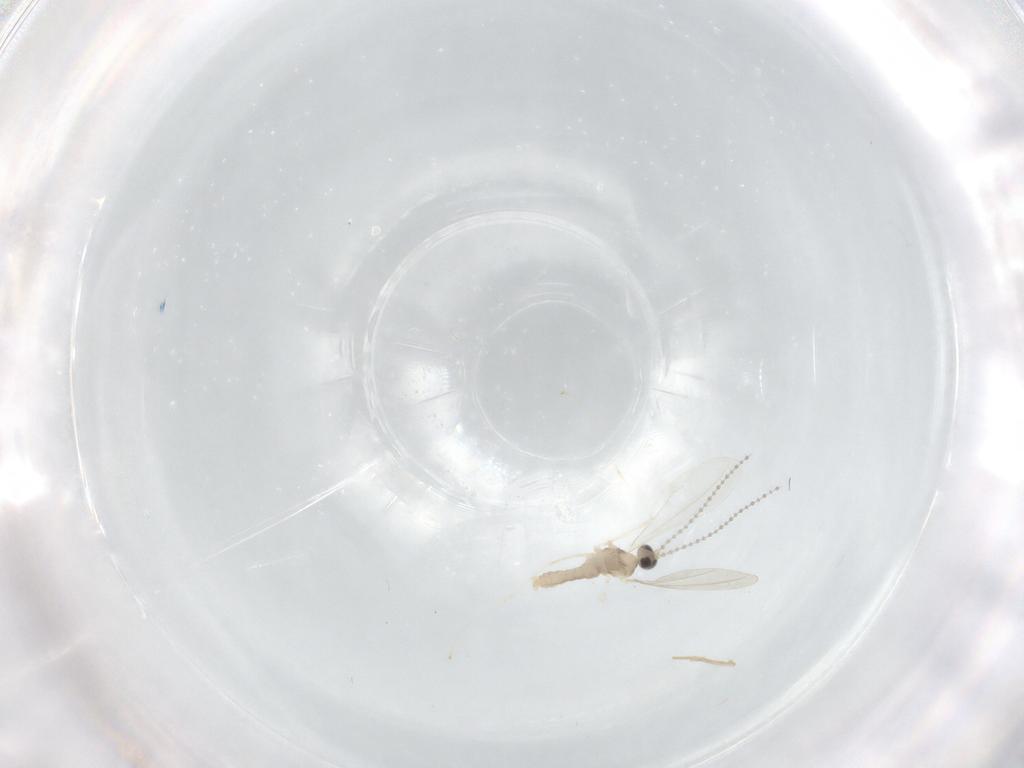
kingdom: Animalia
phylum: Arthropoda
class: Insecta
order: Diptera
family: Cecidomyiidae
